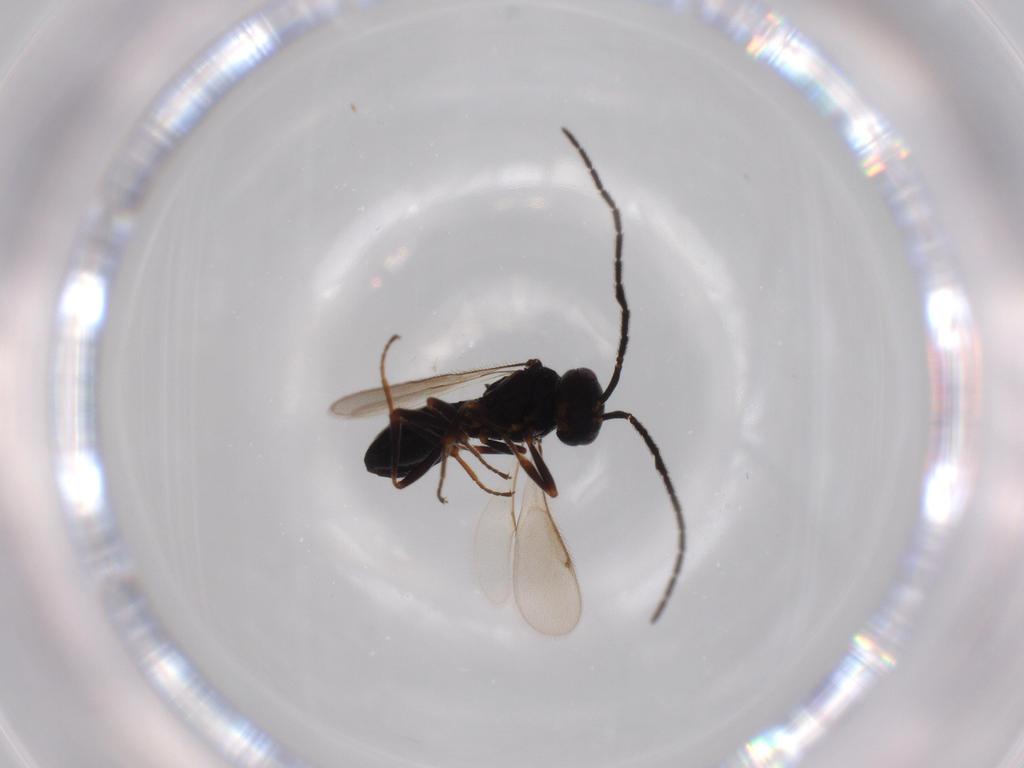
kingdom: Animalia
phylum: Arthropoda
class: Insecta
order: Hymenoptera
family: Scelionidae
